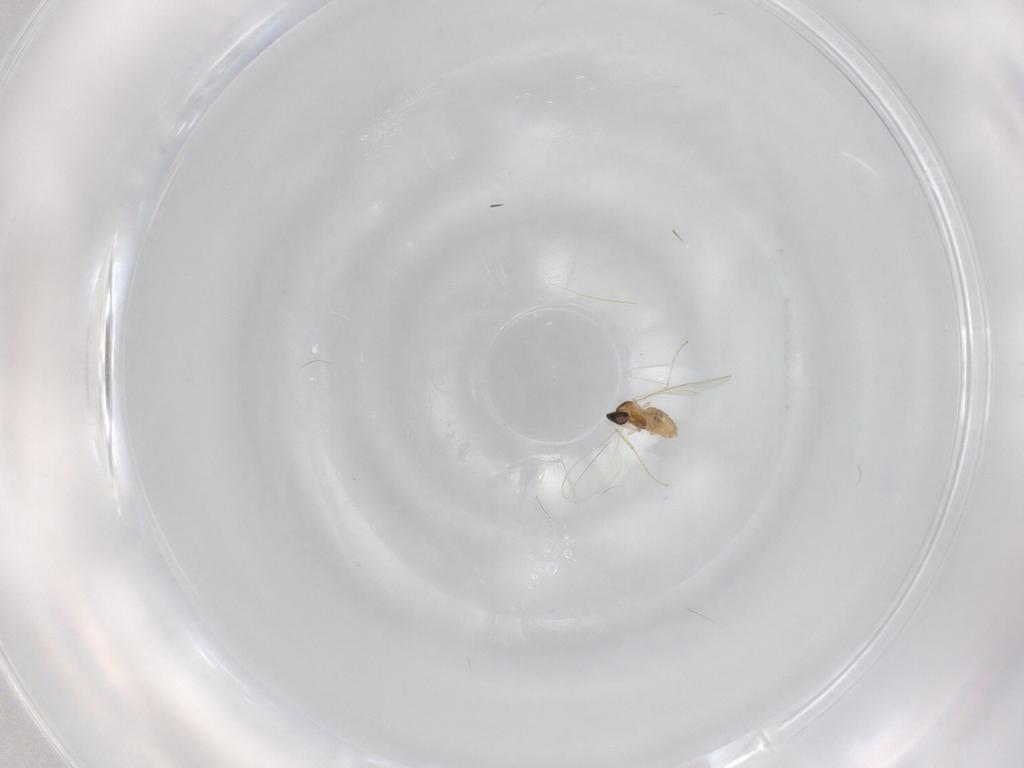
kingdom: Animalia
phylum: Arthropoda
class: Insecta
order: Diptera
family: Cecidomyiidae
